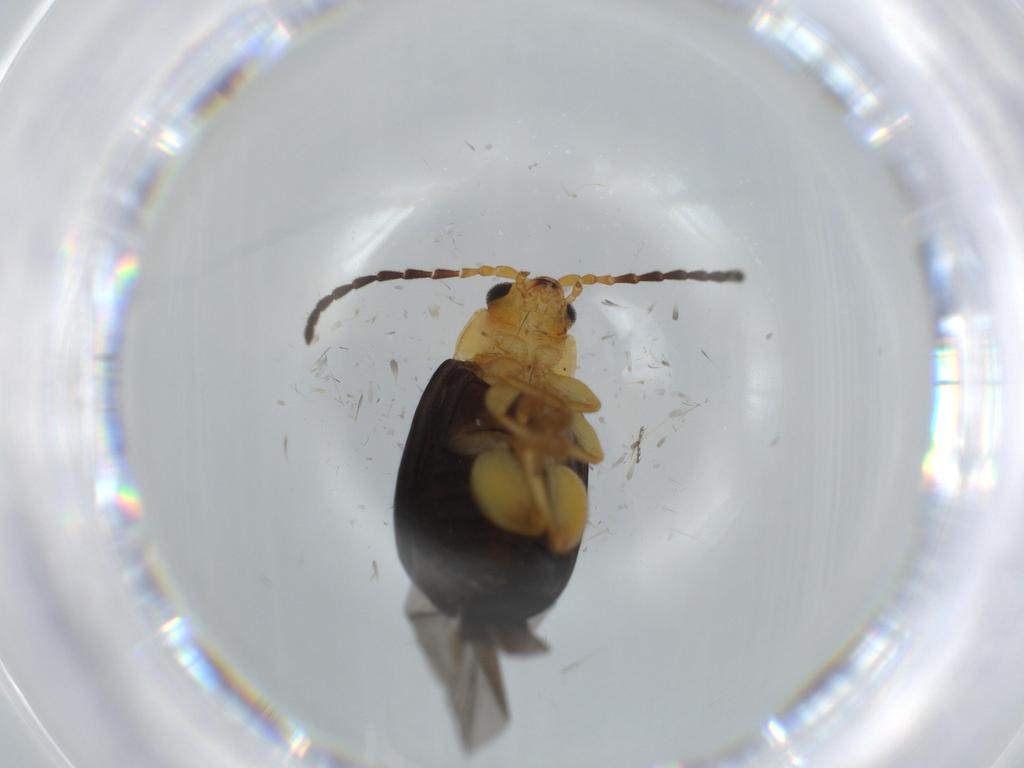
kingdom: Animalia
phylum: Arthropoda
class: Insecta
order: Coleoptera
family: Chrysomelidae
